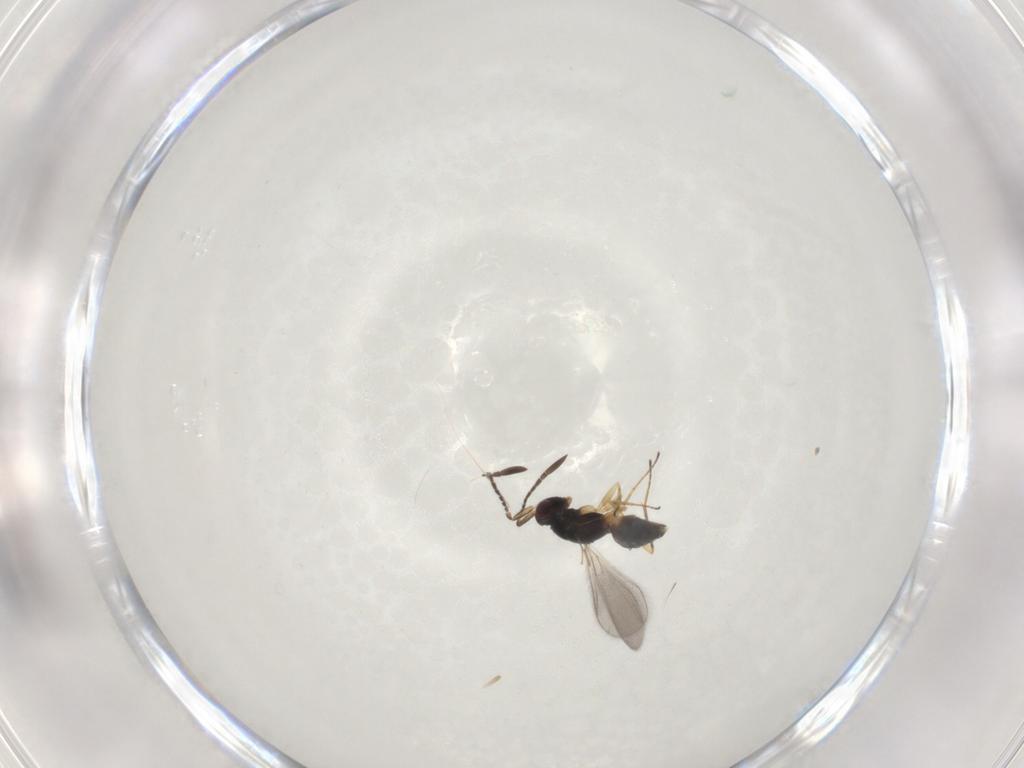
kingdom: Animalia
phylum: Arthropoda
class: Insecta
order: Hymenoptera
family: Mymaridae
